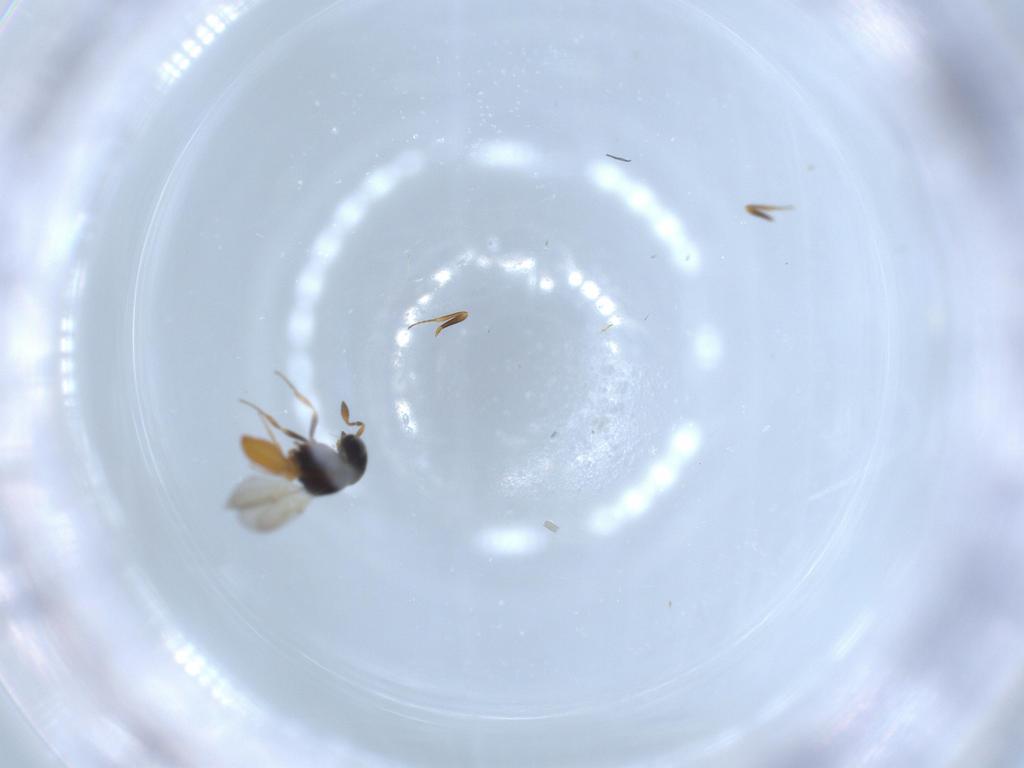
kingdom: Animalia
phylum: Arthropoda
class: Insecta
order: Hymenoptera
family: Scelionidae
